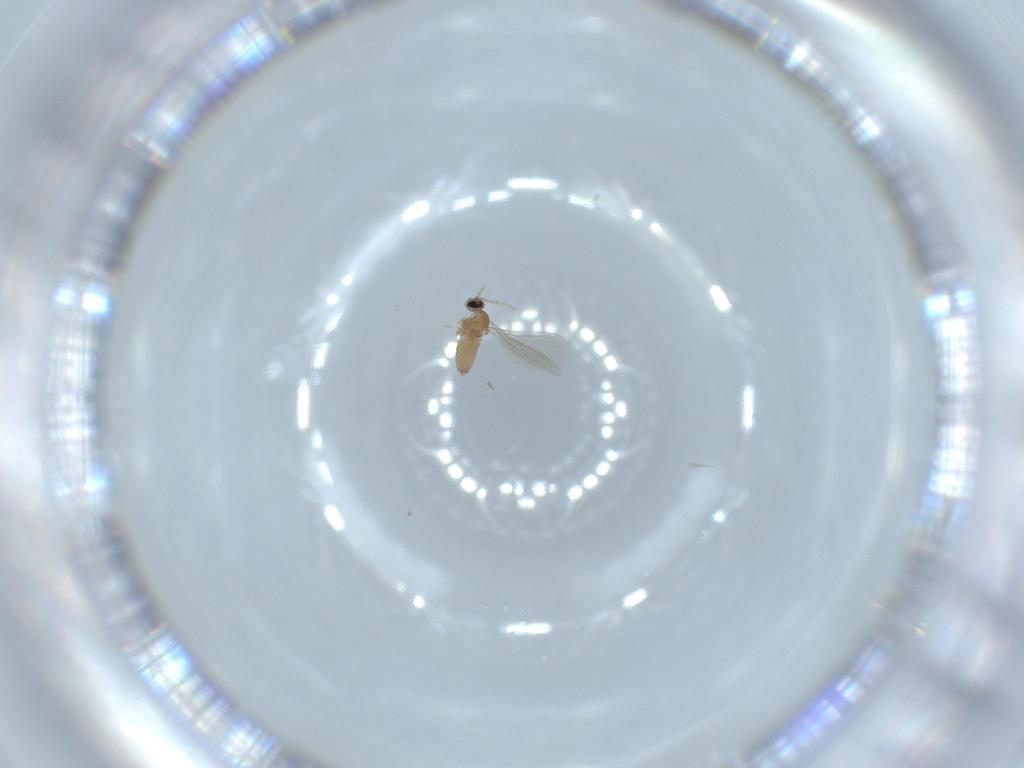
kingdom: Animalia
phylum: Arthropoda
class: Insecta
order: Diptera
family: Cecidomyiidae
